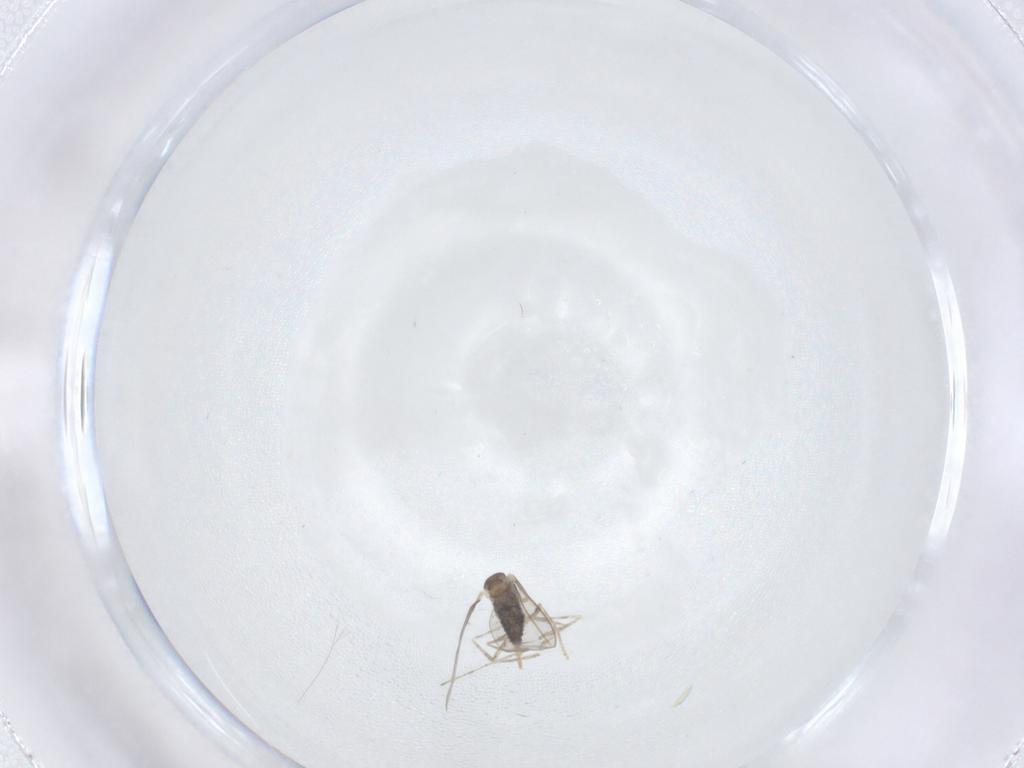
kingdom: Animalia
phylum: Arthropoda
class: Insecta
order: Diptera
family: Cecidomyiidae
